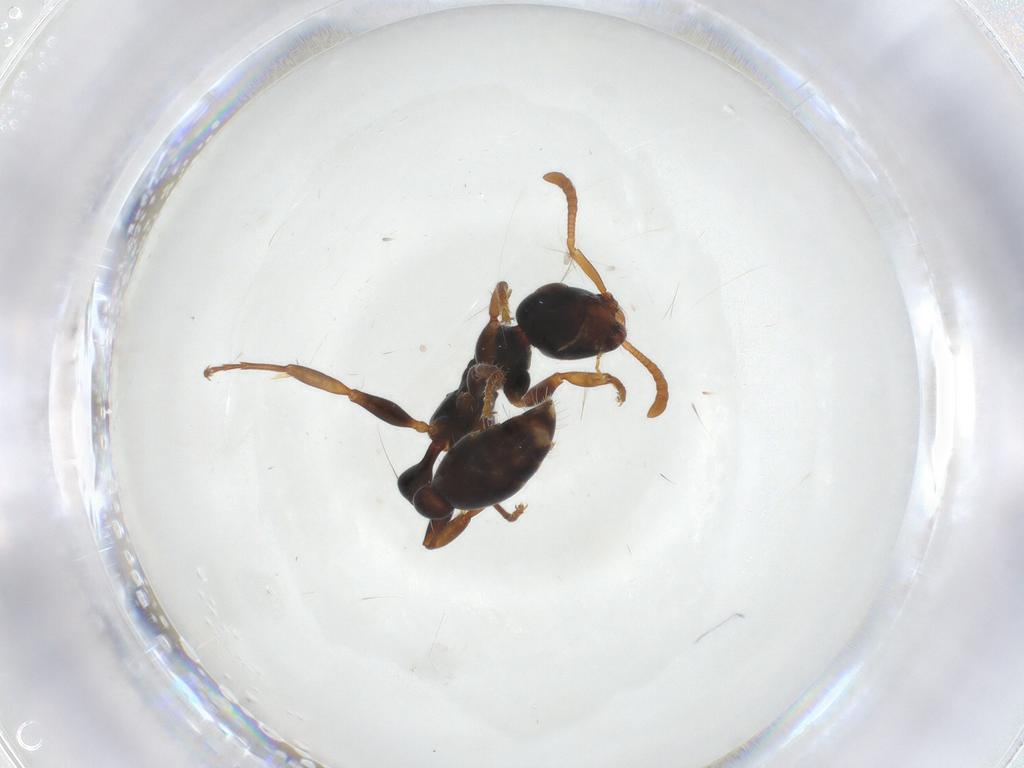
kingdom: Animalia
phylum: Arthropoda
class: Insecta
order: Hymenoptera
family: Formicidae
